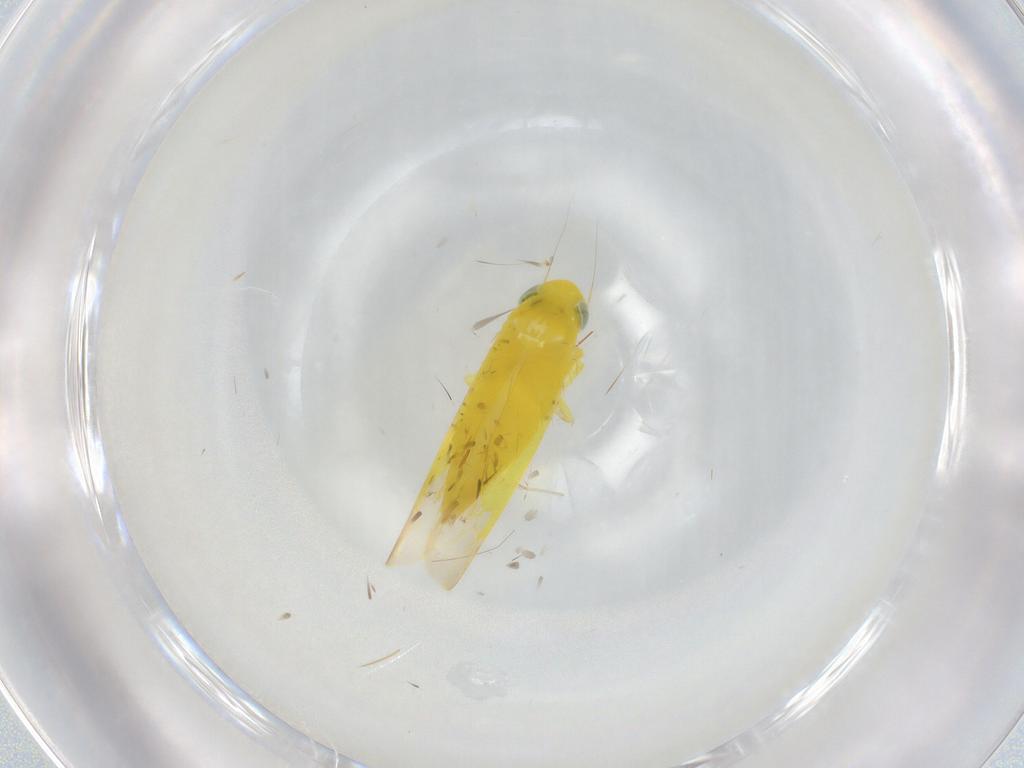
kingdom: Animalia
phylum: Arthropoda
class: Insecta
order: Hemiptera
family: Cicadellidae
